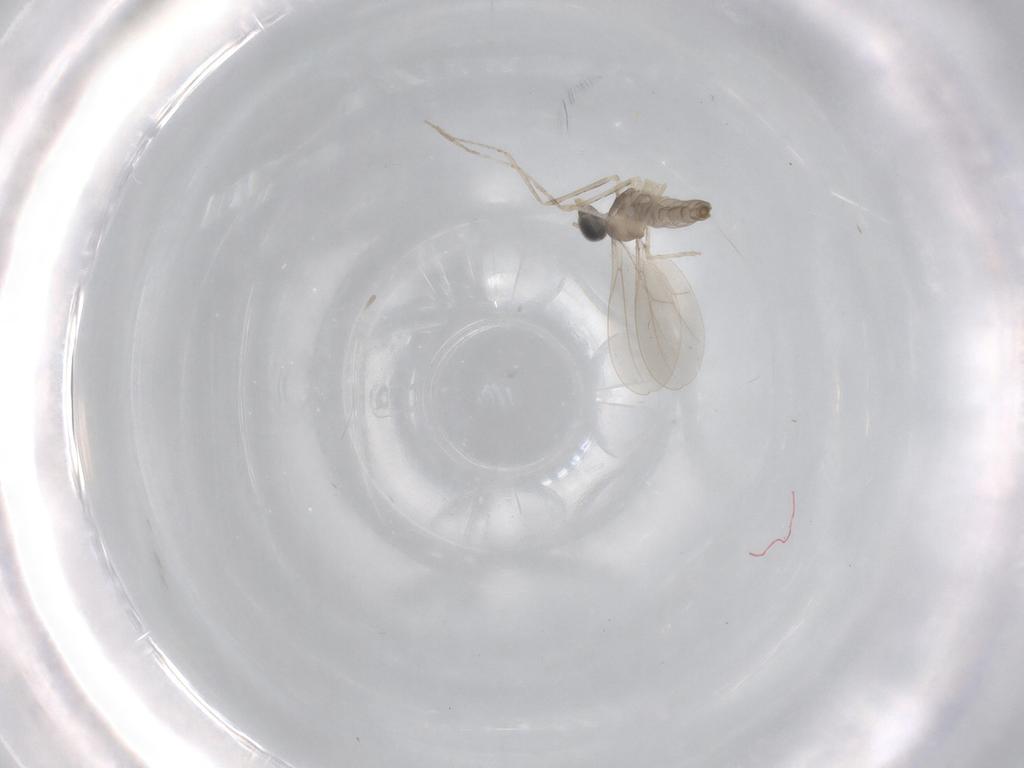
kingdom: Animalia
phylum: Arthropoda
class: Insecta
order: Diptera
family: Cecidomyiidae
